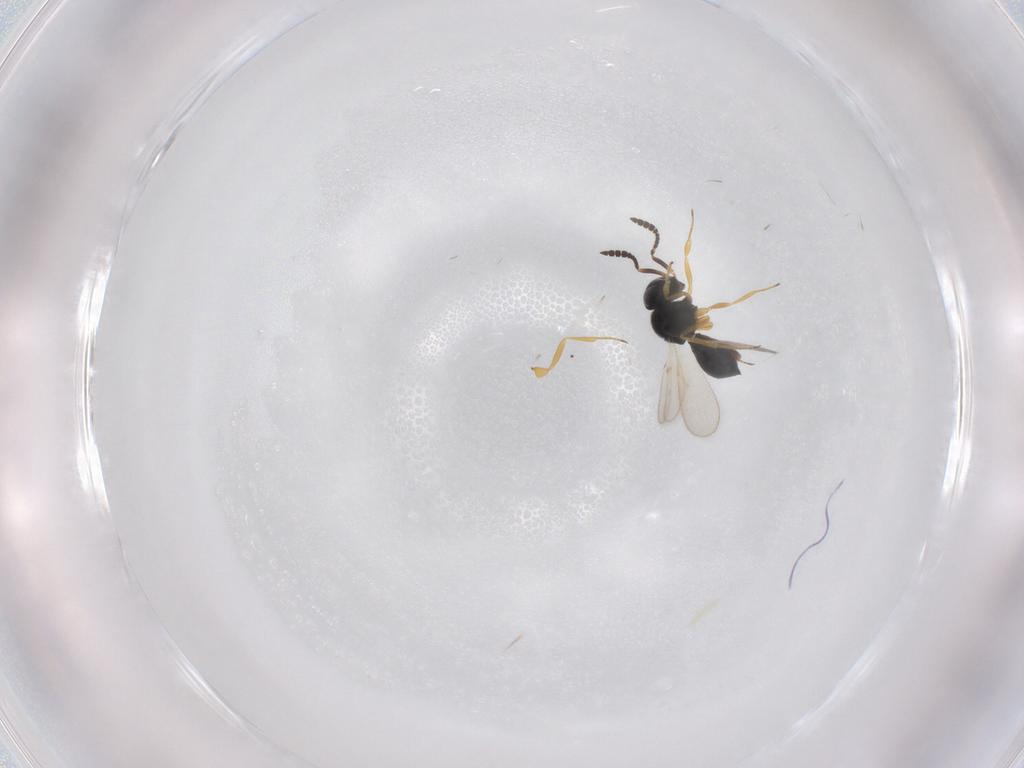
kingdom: Animalia
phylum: Arthropoda
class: Insecta
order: Hymenoptera
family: Scelionidae
